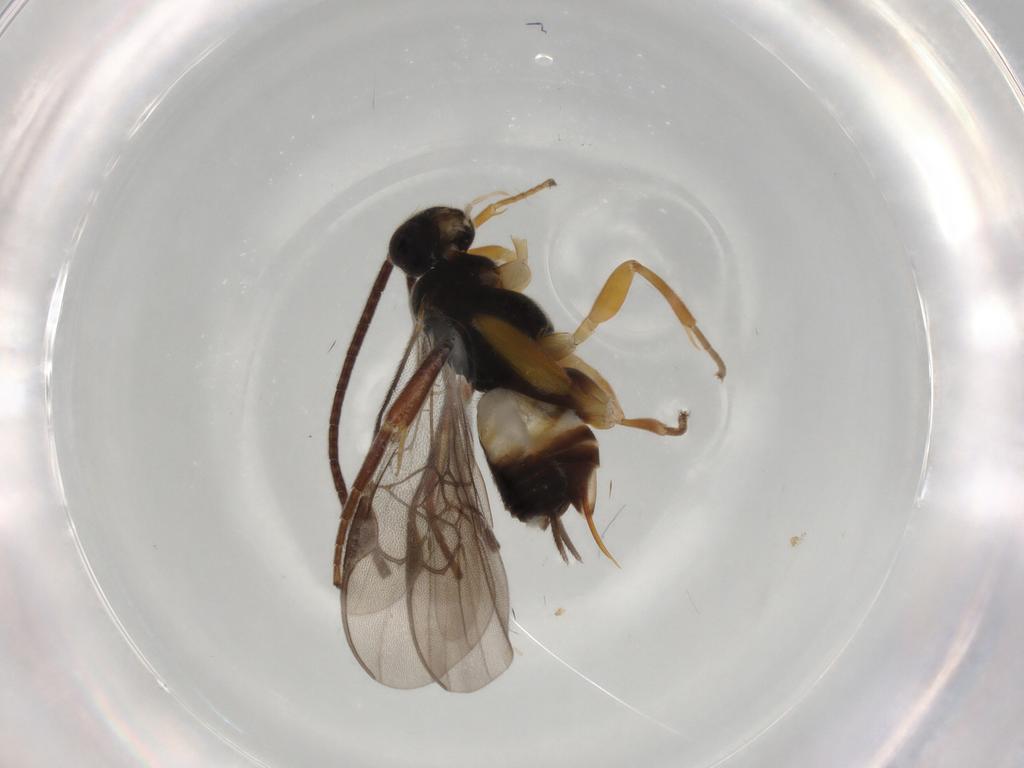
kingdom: Animalia
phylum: Arthropoda
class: Insecta
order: Hymenoptera
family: Braconidae
